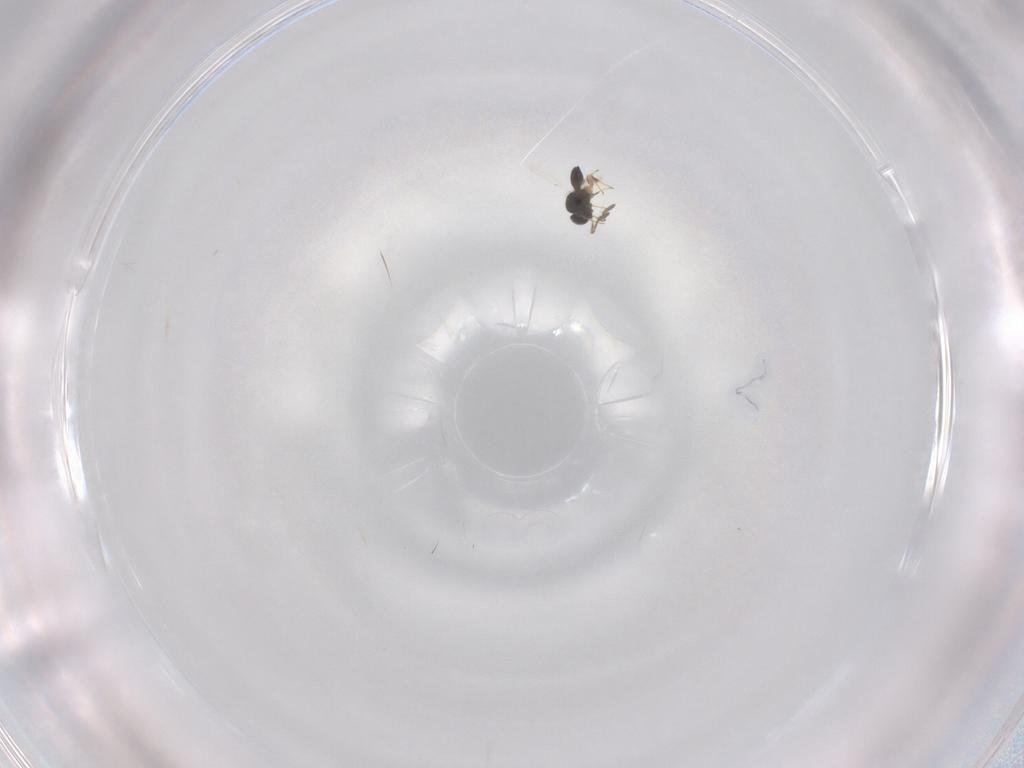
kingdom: Animalia
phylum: Arthropoda
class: Insecta
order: Hymenoptera
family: Scelionidae
